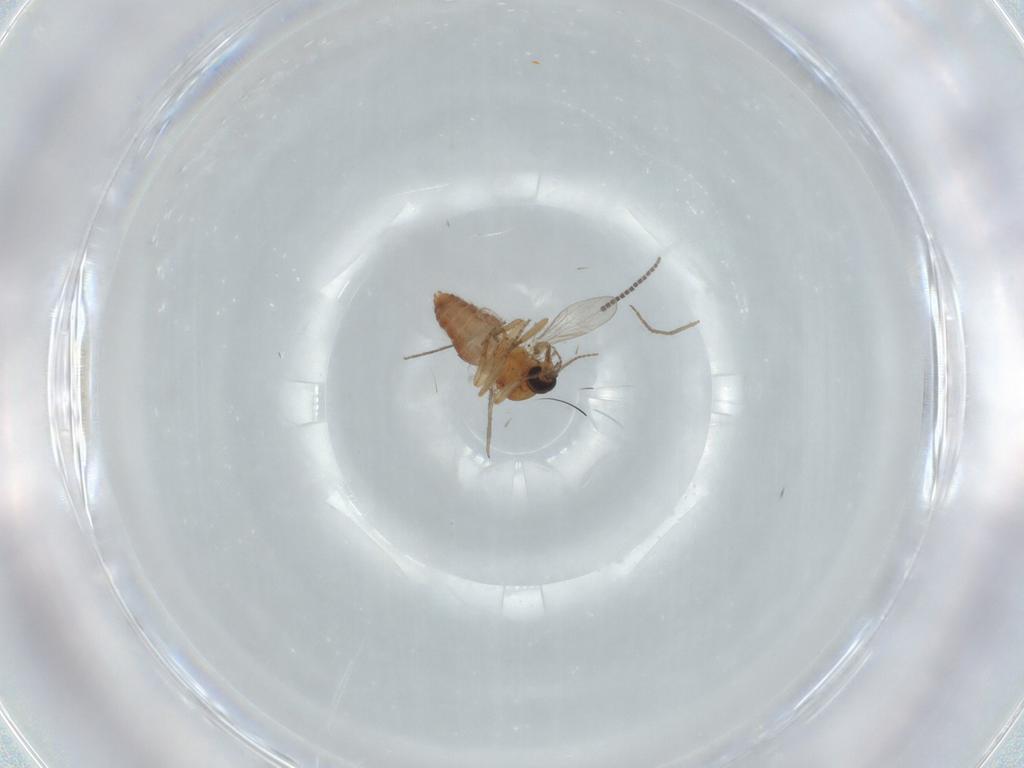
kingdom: Animalia
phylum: Arthropoda
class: Insecta
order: Diptera
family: Ceratopogonidae
